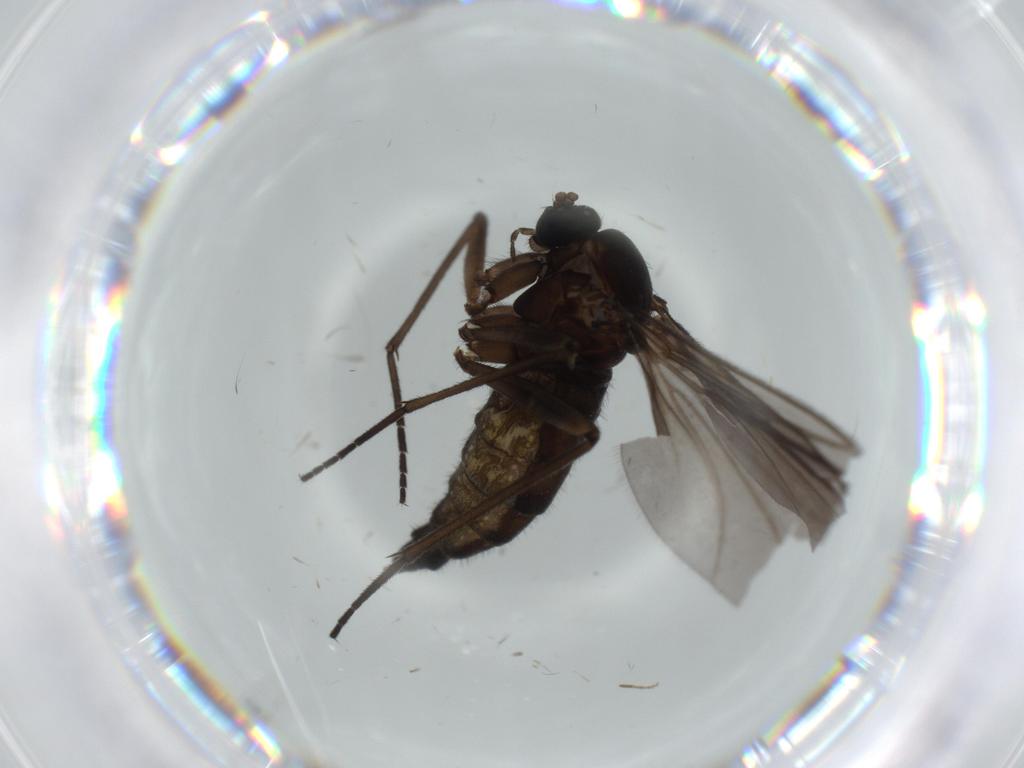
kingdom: Animalia
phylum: Arthropoda
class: Insecta
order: Diptera
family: Sciaridae
